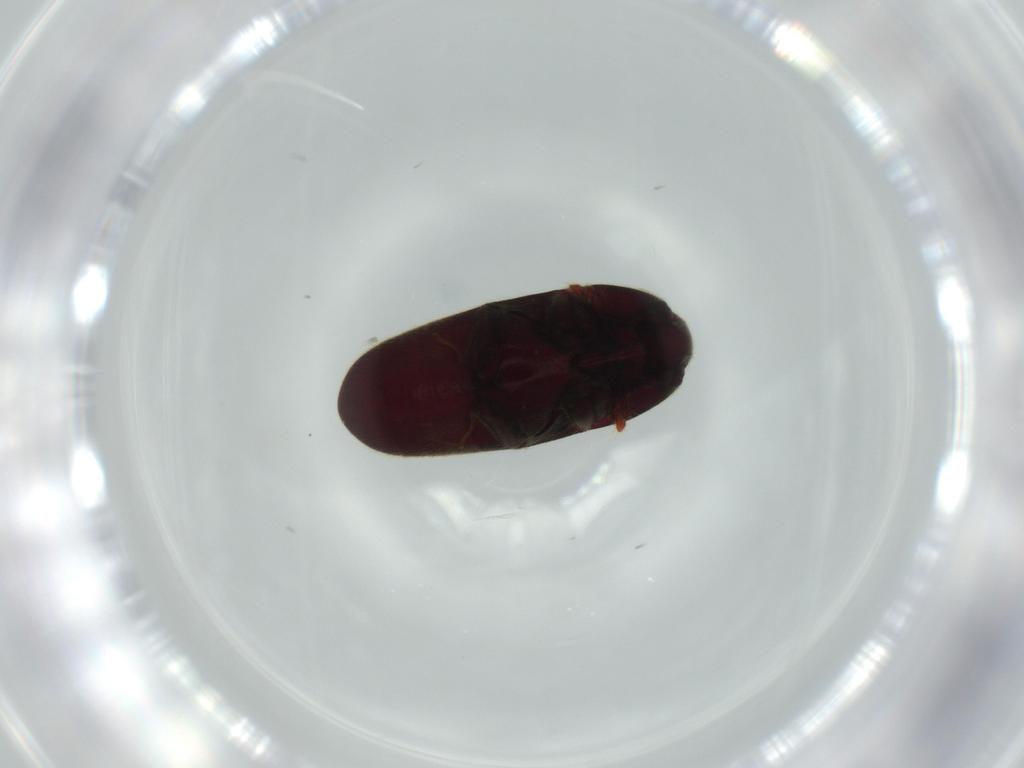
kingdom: Animalia
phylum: Arthropoda
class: Insecta
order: Coleoptera
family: Throscidae
